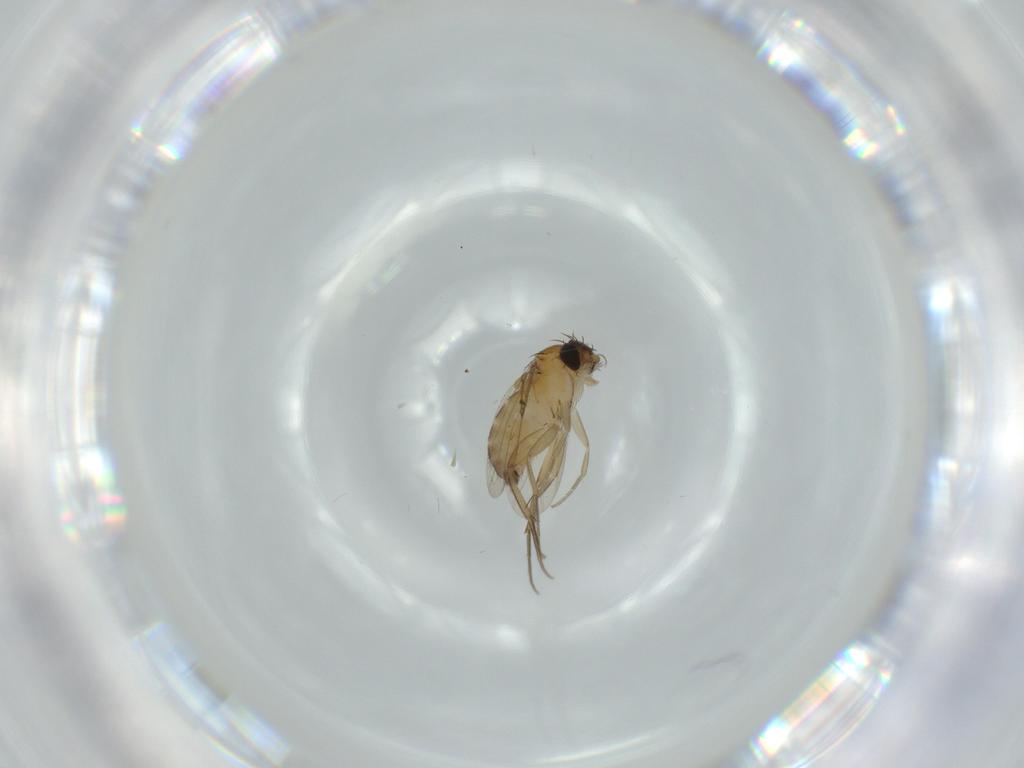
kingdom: Animalia
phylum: Arthropoda
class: Insecta
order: Diptera
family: Phoridae
